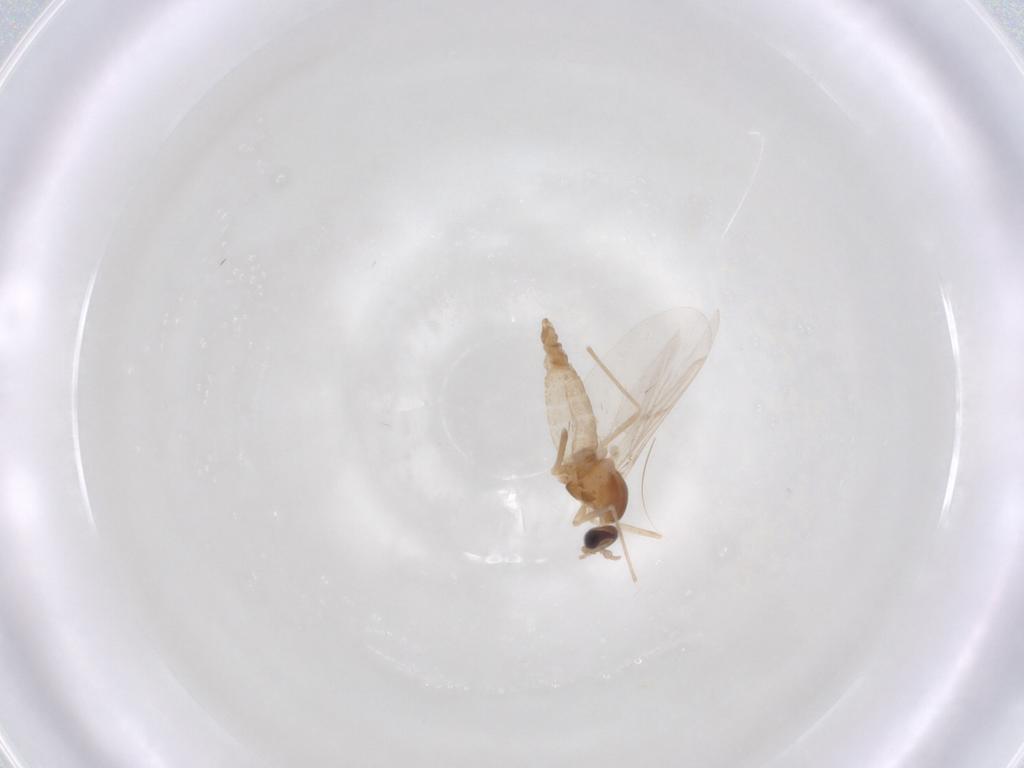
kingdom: Animalia
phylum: Arthropoda
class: Insecta
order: Diptera
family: Cecidomyiidae
